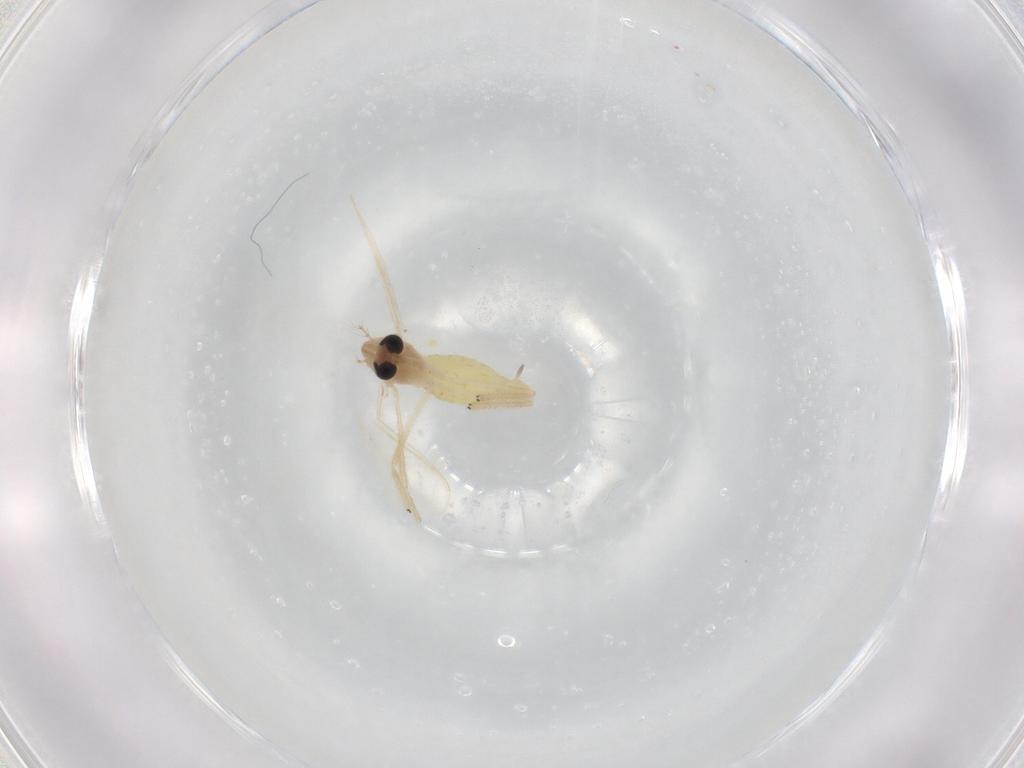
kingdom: Animalia
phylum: Arthropoda
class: Insecta
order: Diptera
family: Chironomidae
